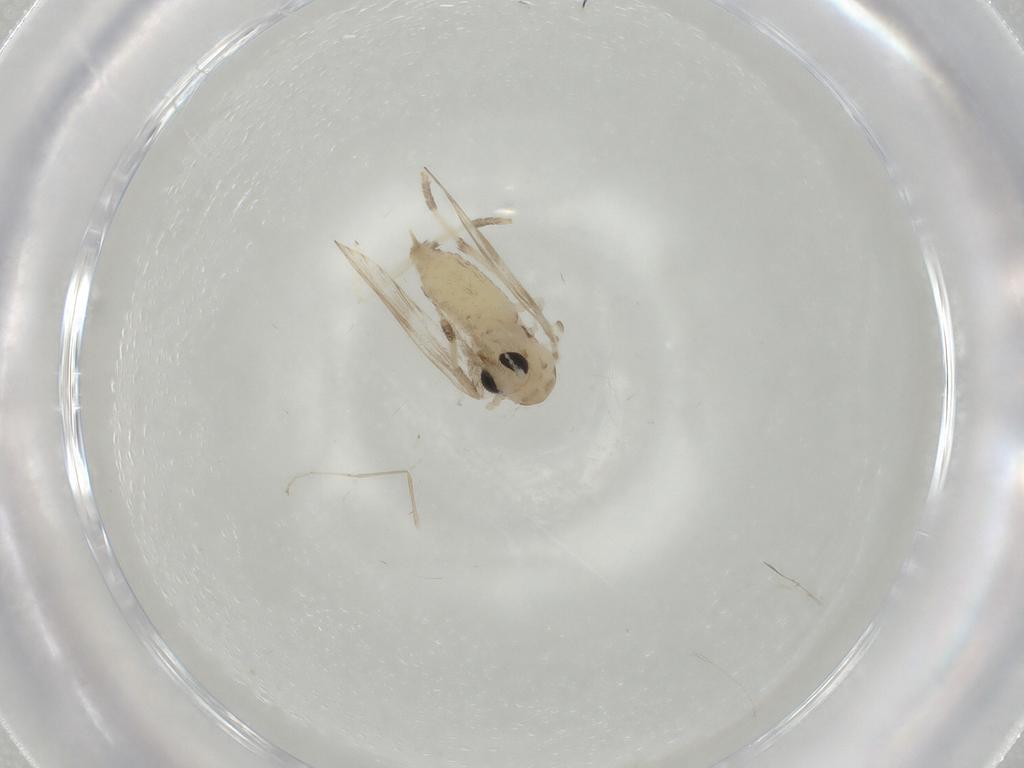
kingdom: Animalia
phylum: Arthropoda
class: Insecta
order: Diptera
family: Psychodidae
